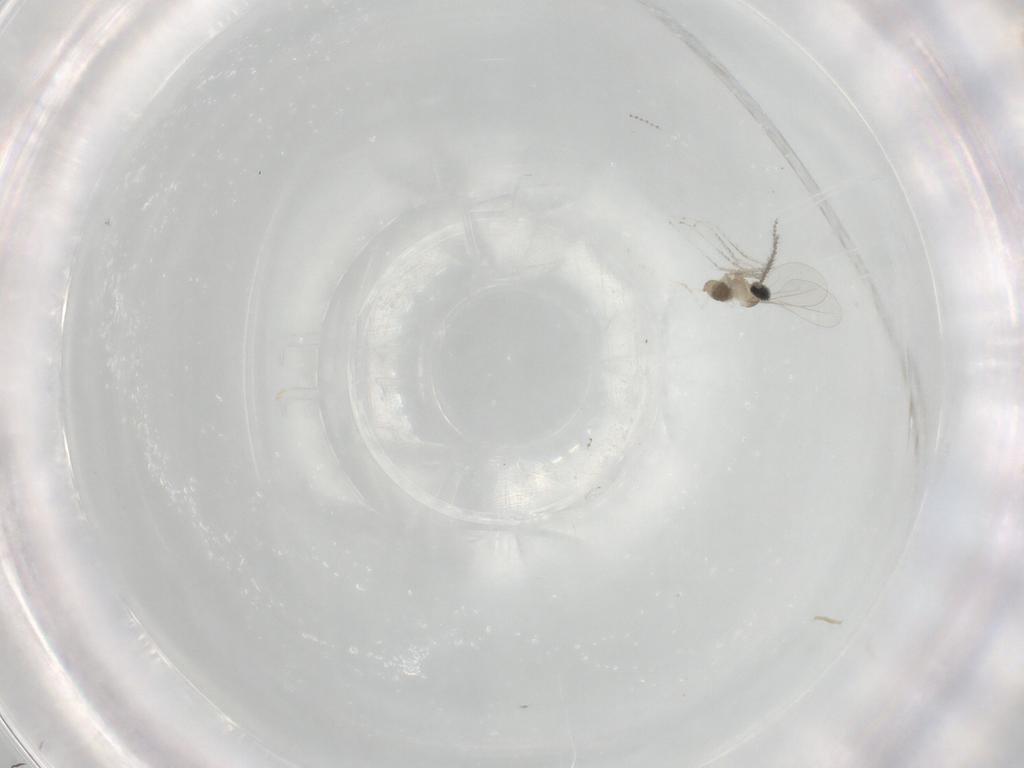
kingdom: Animalia
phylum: Arthropoda
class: Insecta
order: Diptera
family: Cecidomyiidae
